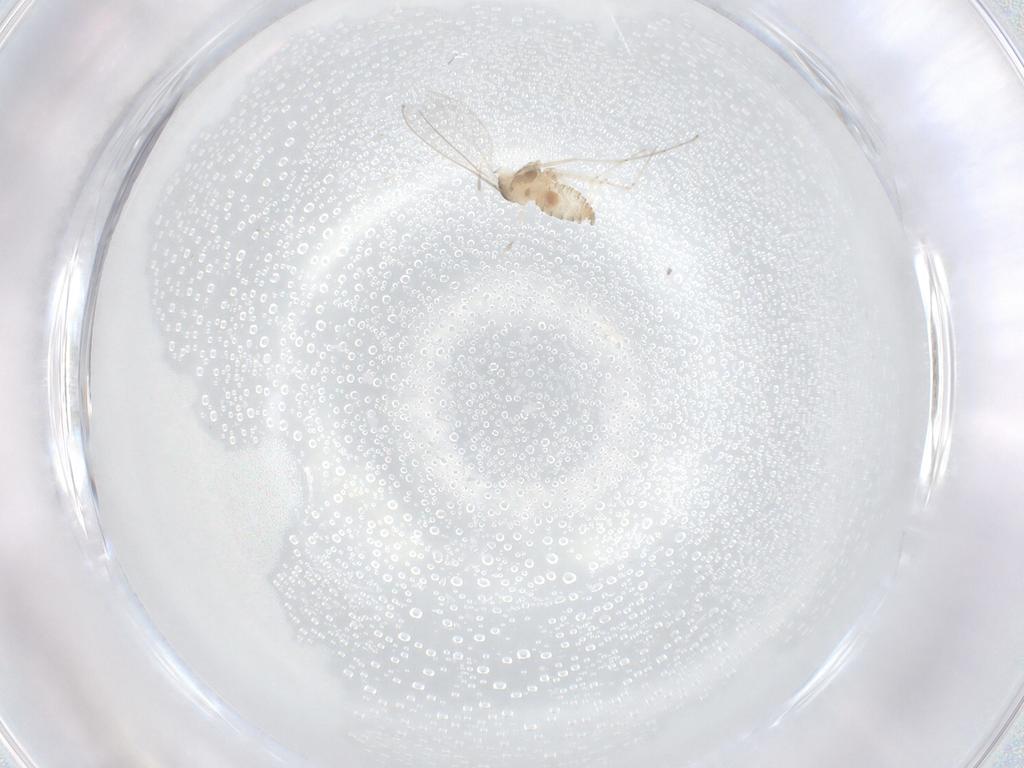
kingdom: Animalia
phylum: Arthropoda
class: Insecta
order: Diptera
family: Cecidomyiidae
